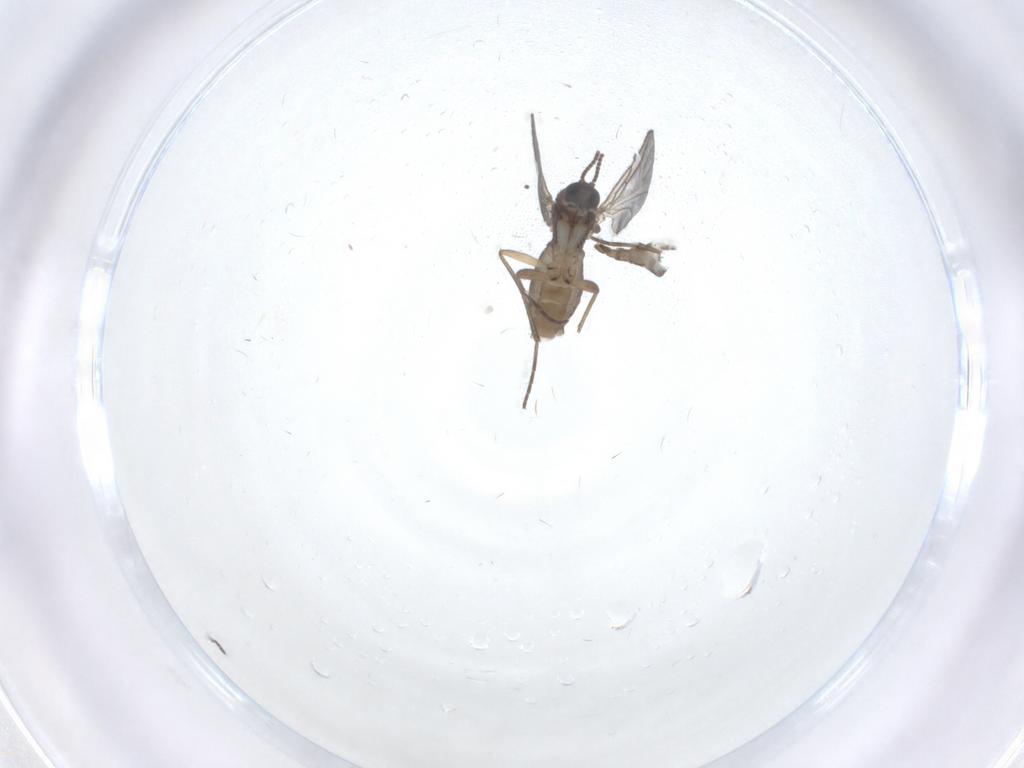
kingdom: Animalia
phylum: Arthropoda
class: Insecta
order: Diptera
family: Sciaridae
